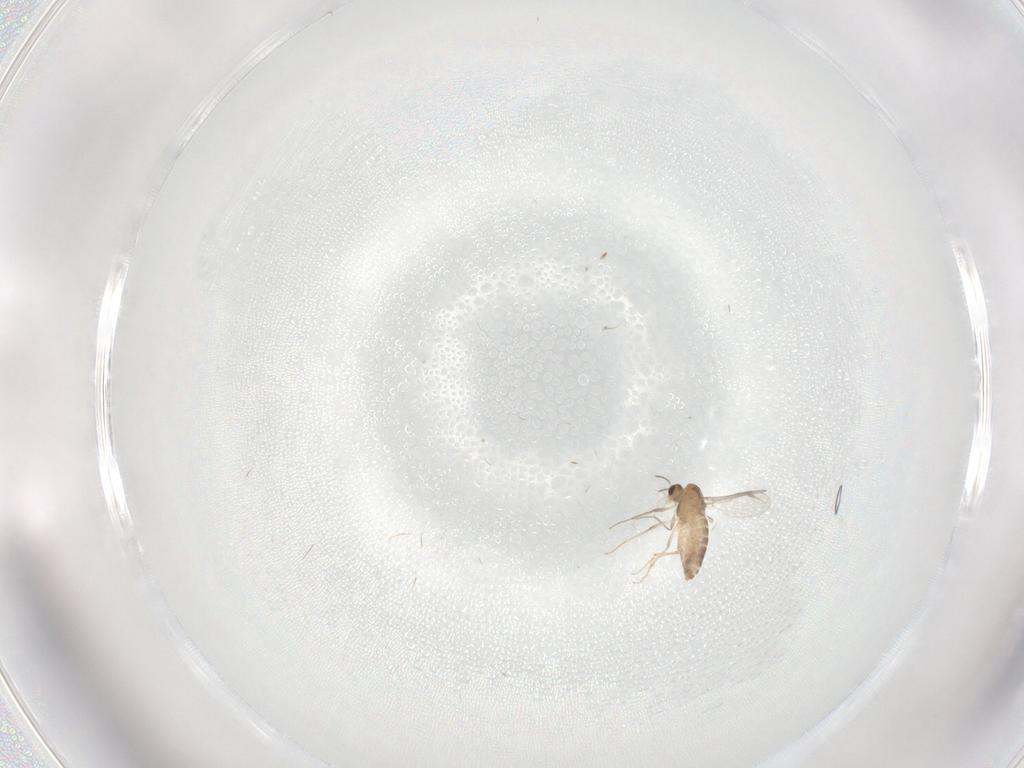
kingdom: Animalia
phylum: Arthropoda
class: Insecta
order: Diptera
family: Chironomidae
